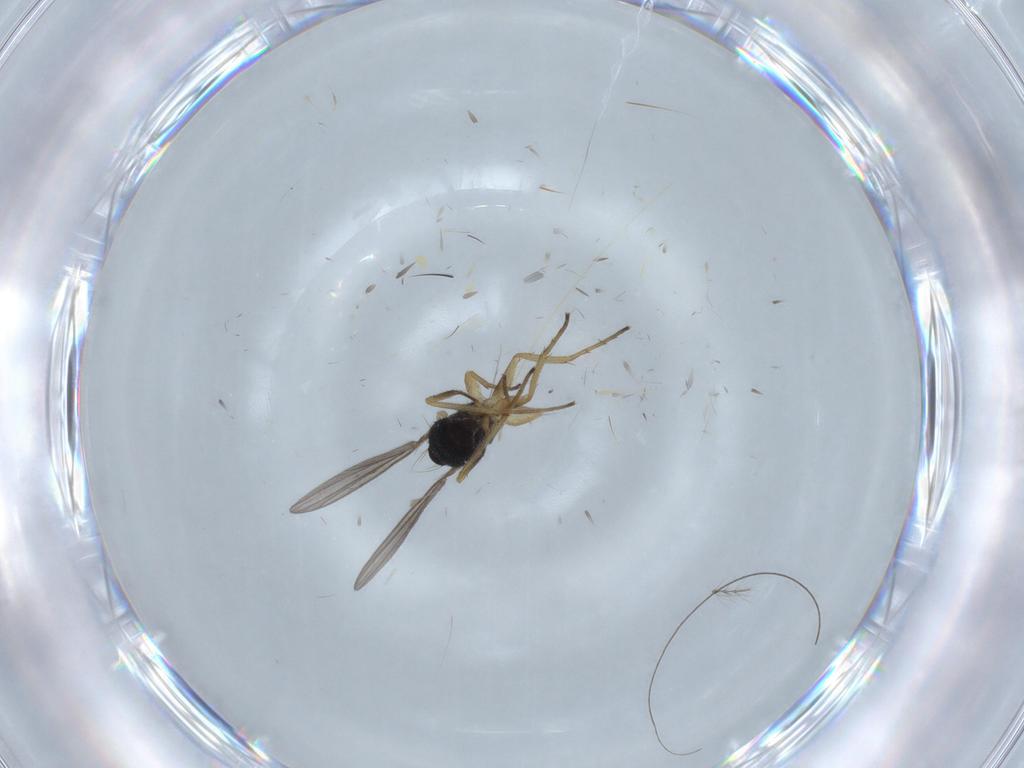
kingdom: Animalia
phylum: Arthropoda
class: Insecta
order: Diptera
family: Dolichopodidae
